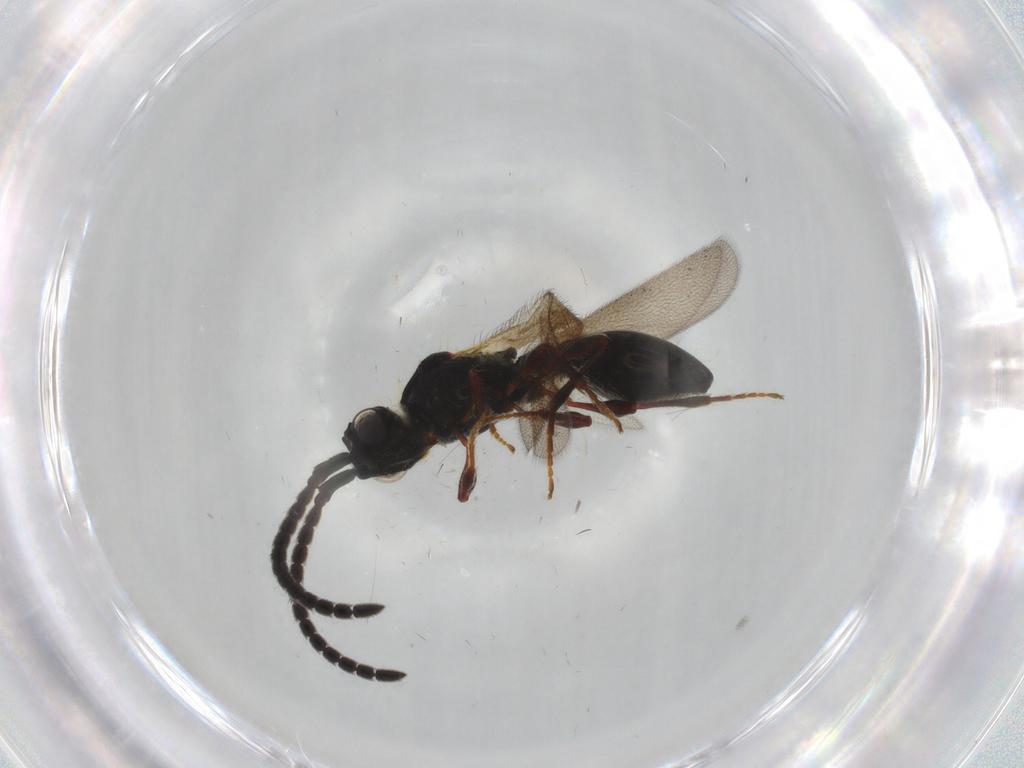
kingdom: Animalia
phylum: Arthropoda
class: Insecta
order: Hymenoptera
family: Diapriidae
